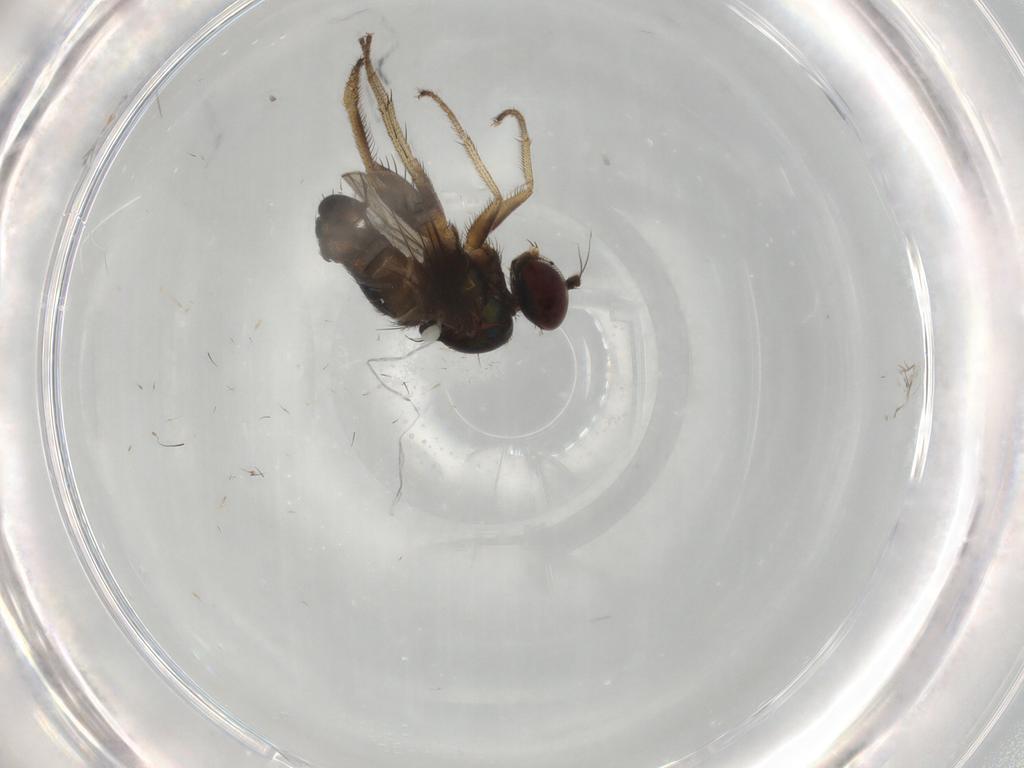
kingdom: Animalia
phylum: Arthropoda
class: Insecta
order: Diptera
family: Dolichopodidae
